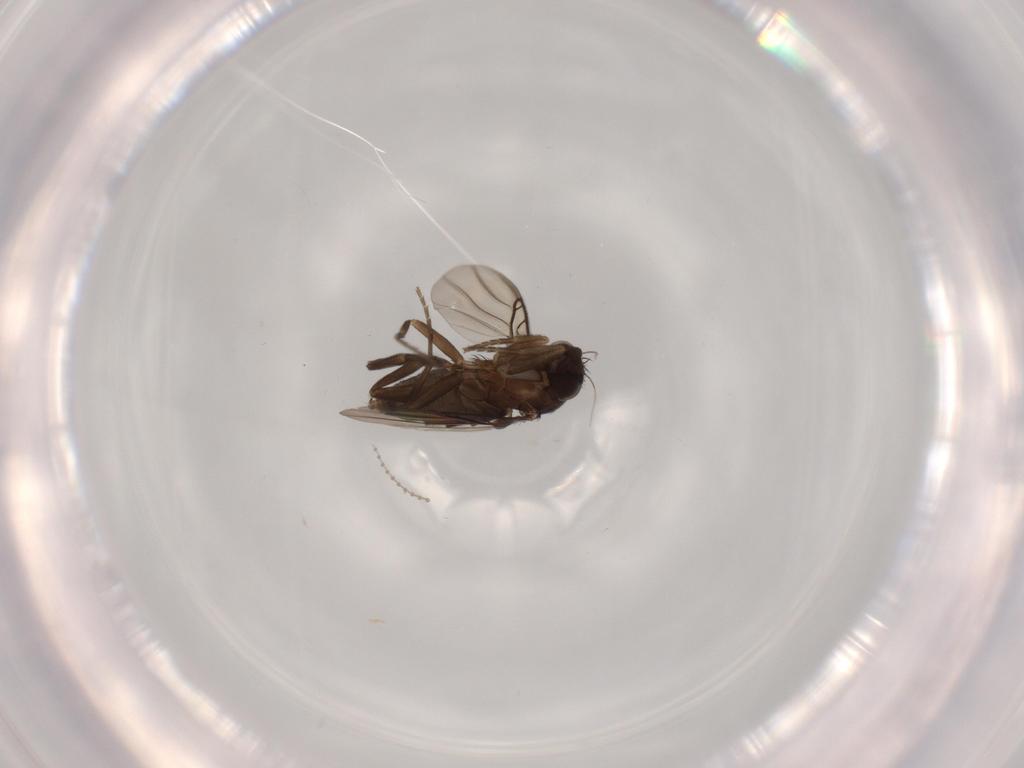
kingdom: Animalia
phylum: Arthropoda
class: Insecta
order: Diptera
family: Phoridae
